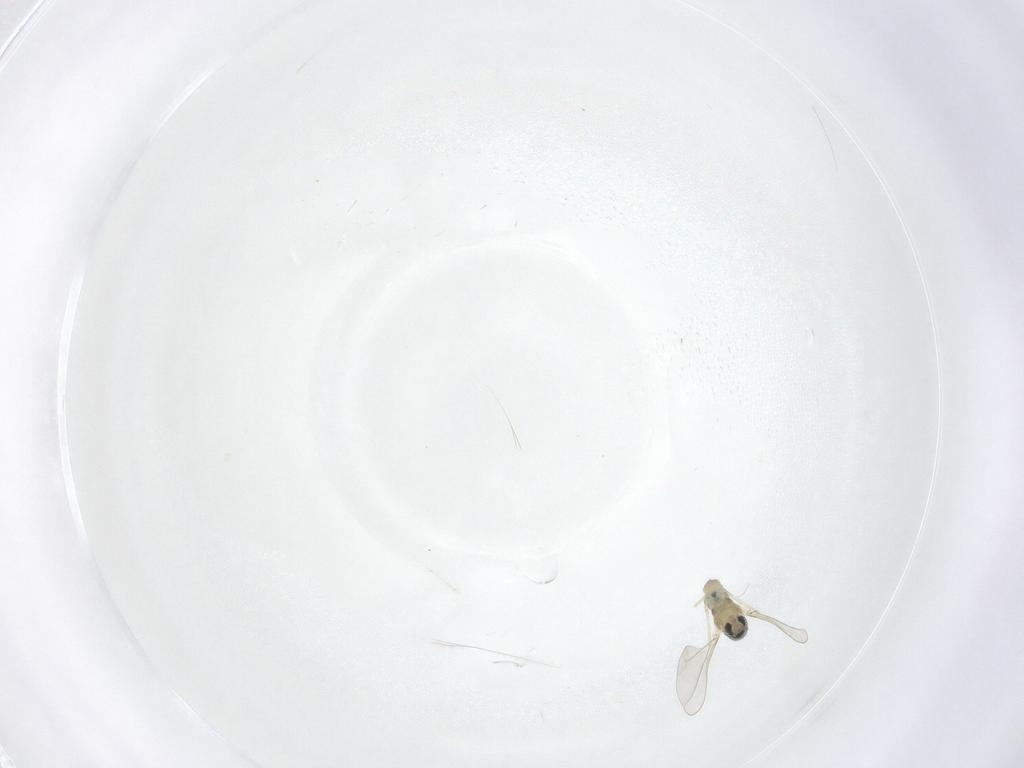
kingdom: Animalia
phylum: Arthropoda
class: Insecta
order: Diptera
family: Cecidomyiidae
